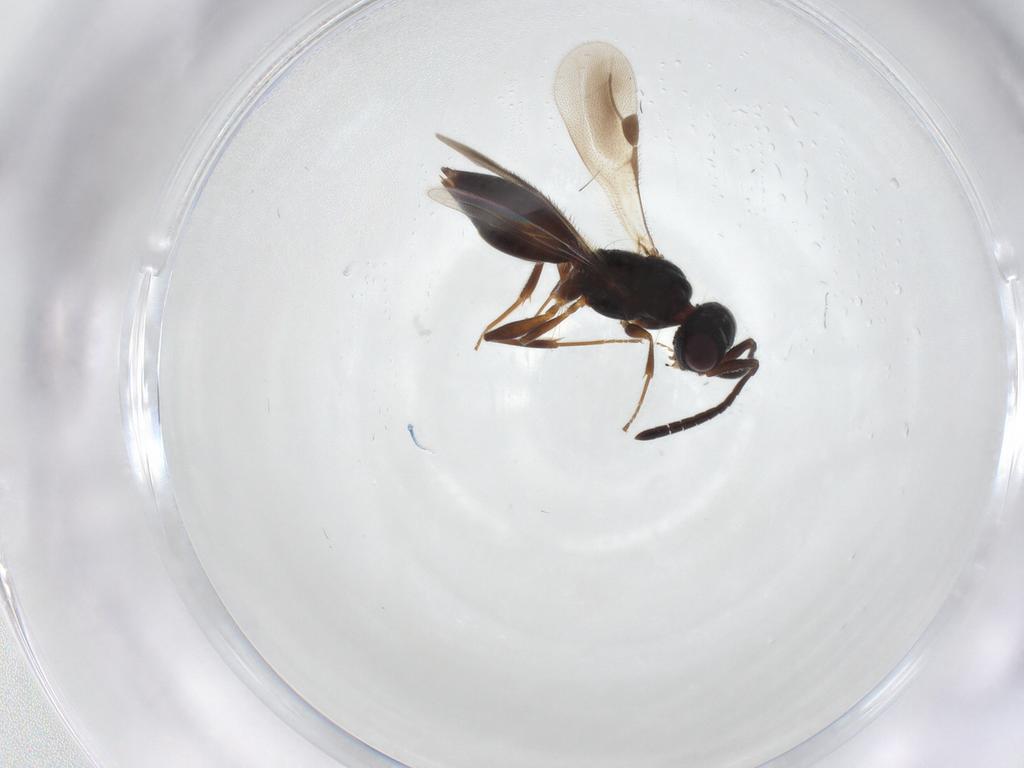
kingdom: Animalia
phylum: Arthropoda
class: Insecta
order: Hymenoptera
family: Megaspilidae
